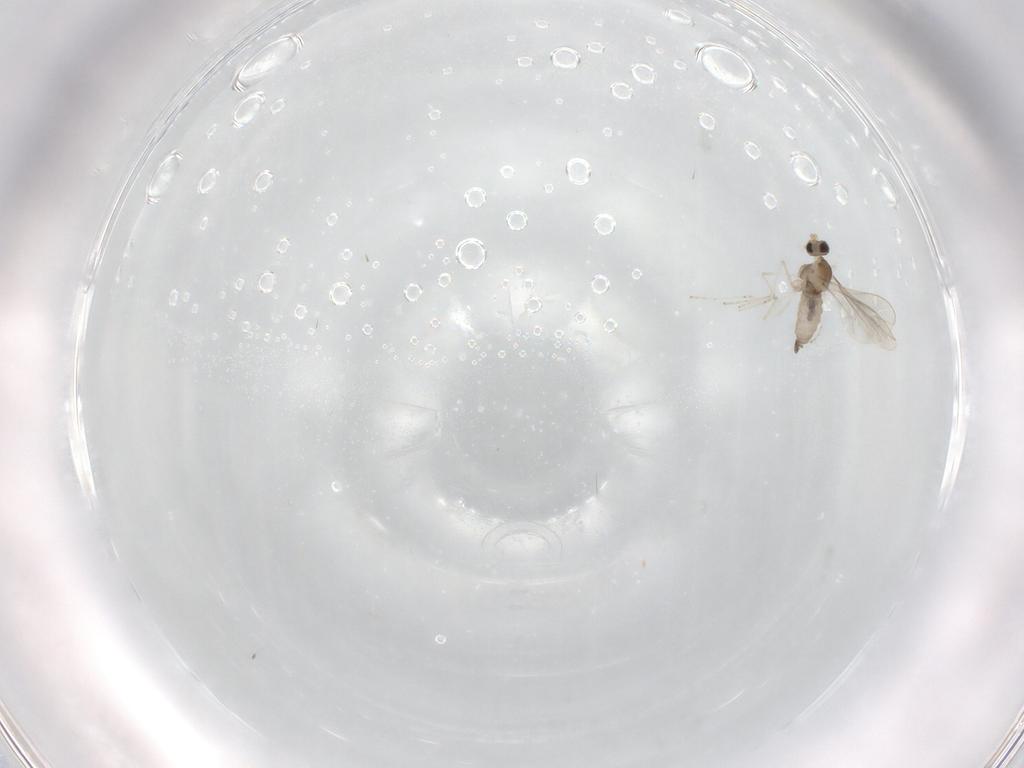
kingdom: Animalia
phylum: Arthropoda
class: Insecta
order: Diptera
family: Cecidomyiidae
